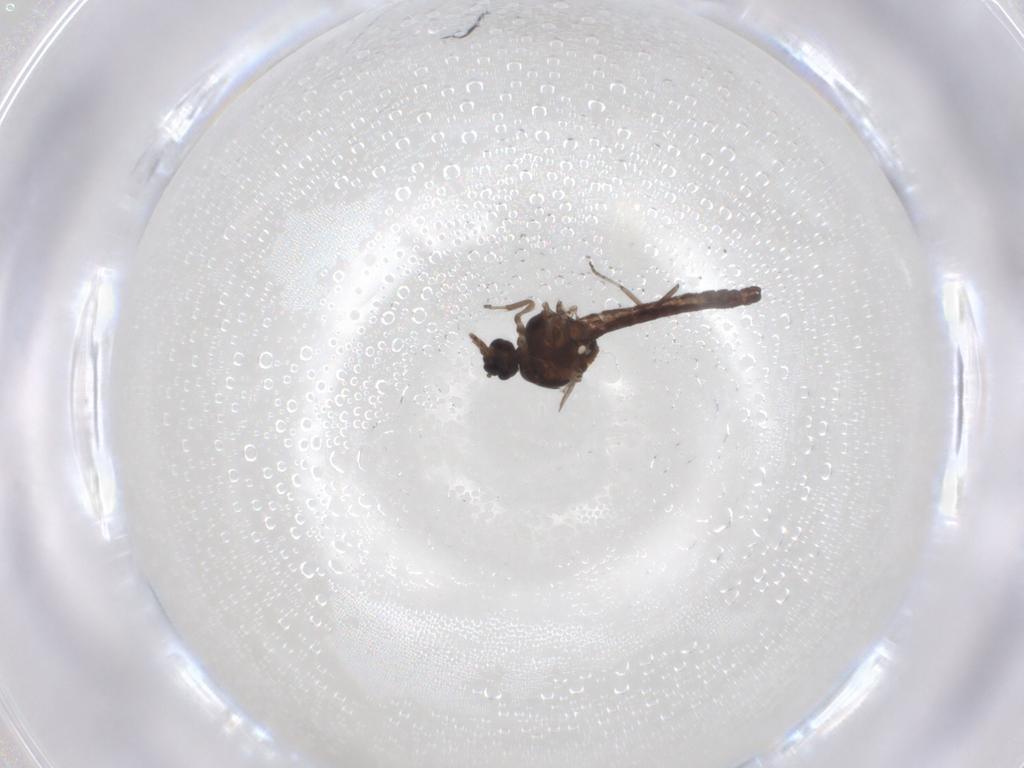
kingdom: Animalia
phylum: Arthropoda
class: Insecta
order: Diptera
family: Ceratopogonidae
